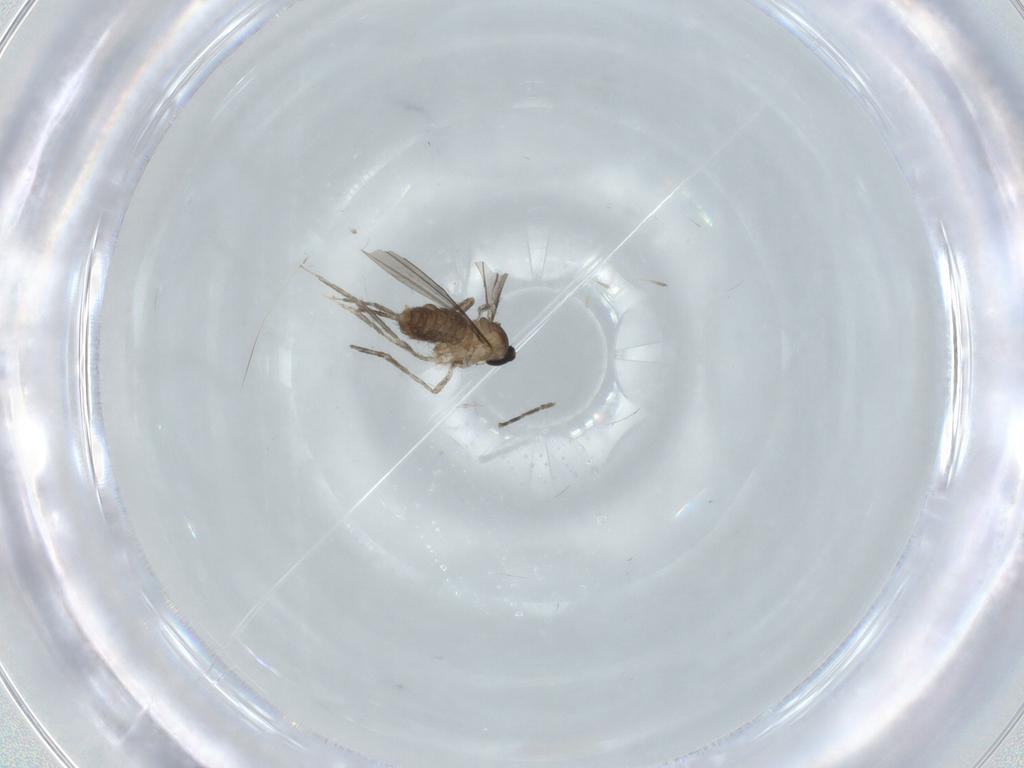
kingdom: Animalia
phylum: Arthropoda
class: Insecta
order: Diptera
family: Cecidomyiidae
